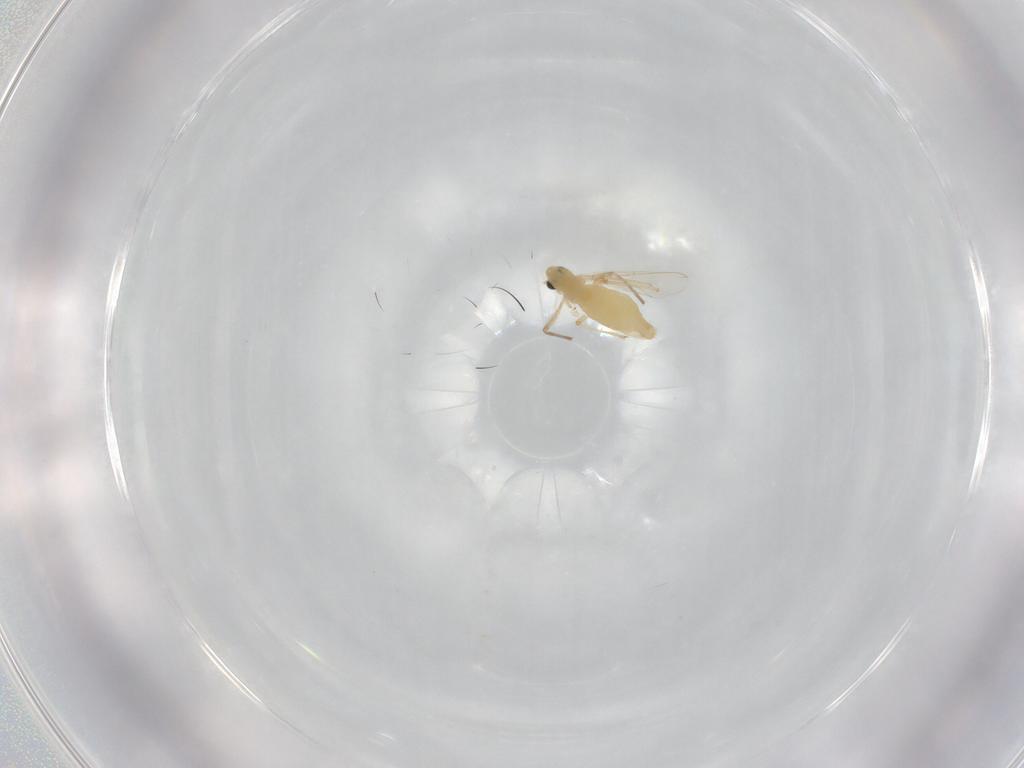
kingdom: Animalia
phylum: Arthropoda
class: Insecta
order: Diptera
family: Chironomidae
